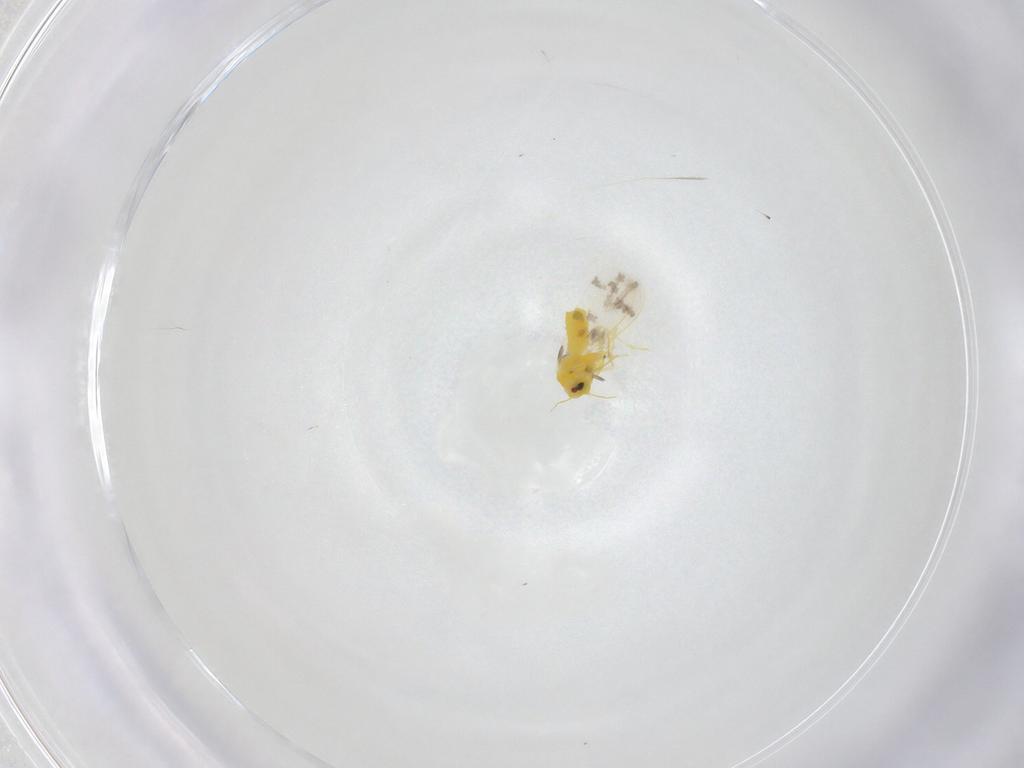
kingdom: Animalia
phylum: Arthropoda
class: Insecta
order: Hemiptera
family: Aleyrodidae
